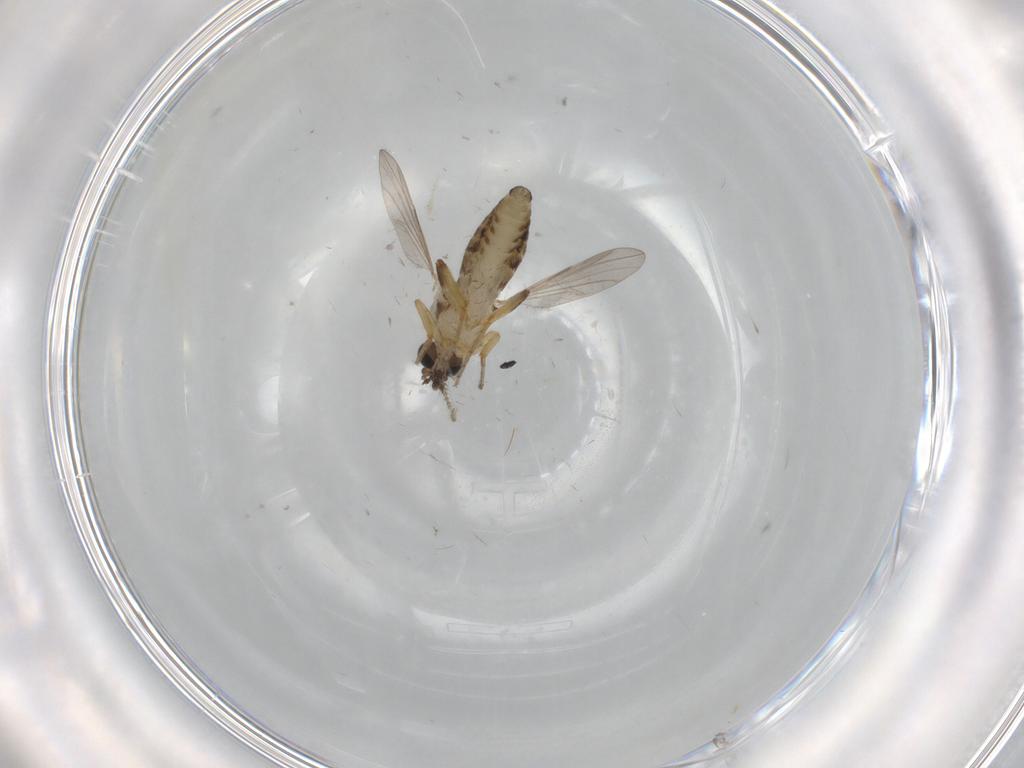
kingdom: Animalia
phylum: Arthropoda
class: Insecta
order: Diptera
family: Ceratopogonidae
